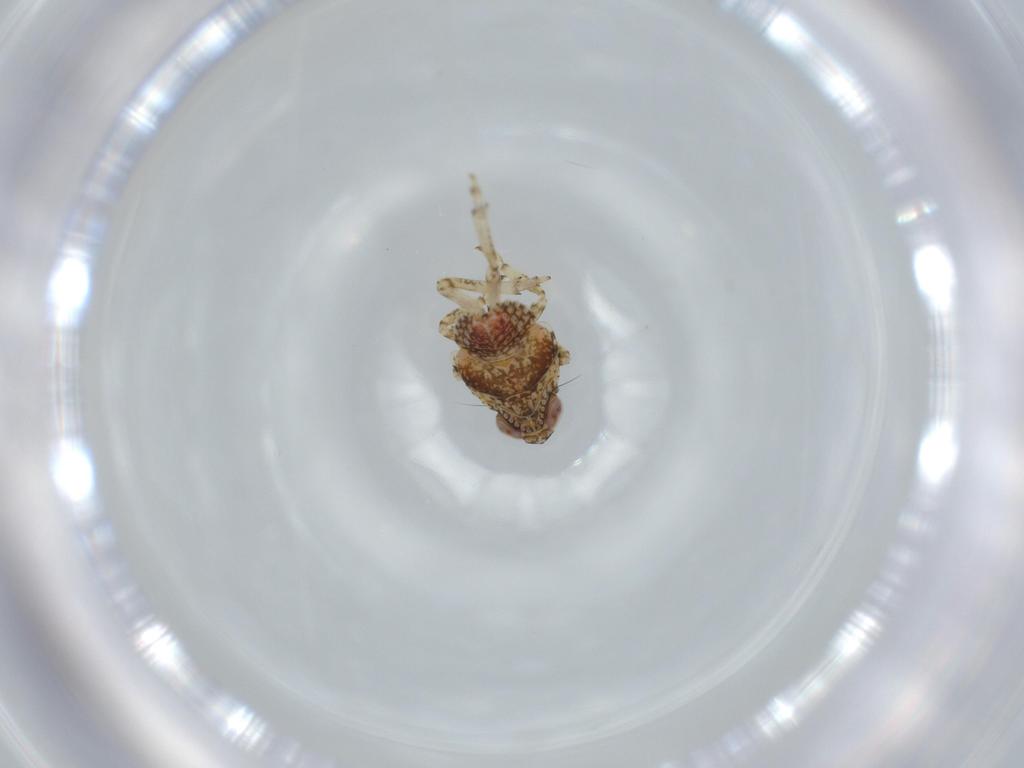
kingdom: Animalia
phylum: Arthropoda
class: Insecta
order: Hemiptera
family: Issidae
